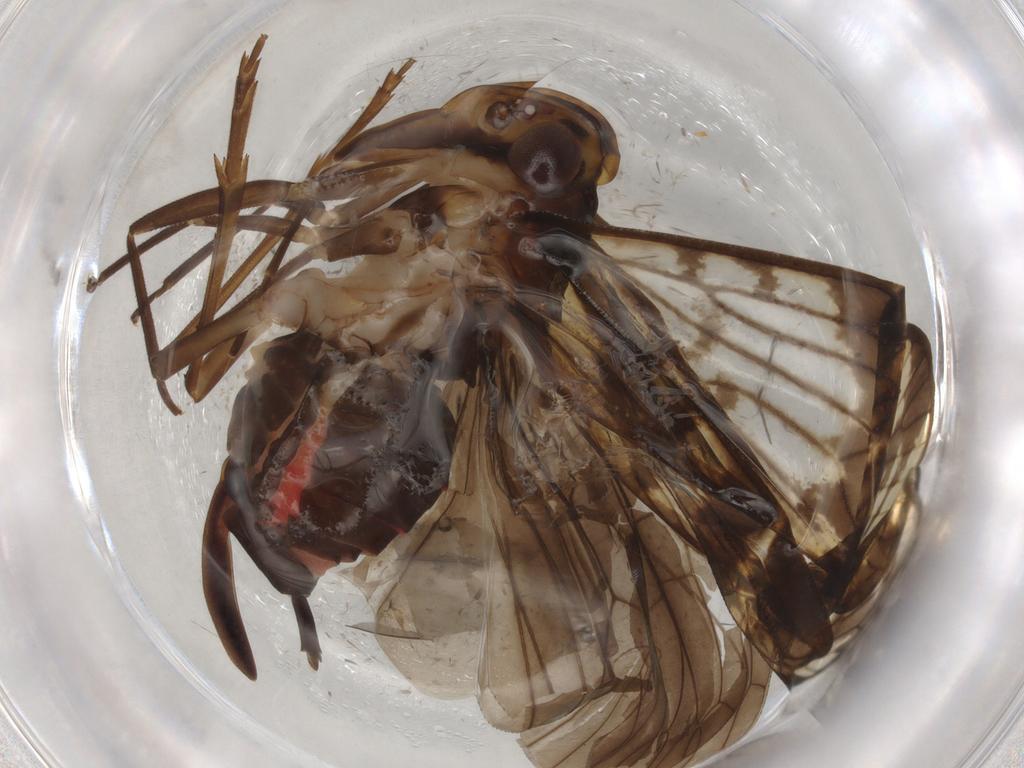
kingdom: Animalia
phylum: Arthropoda
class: Insecta
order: Hemiptera
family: Cixiidae
